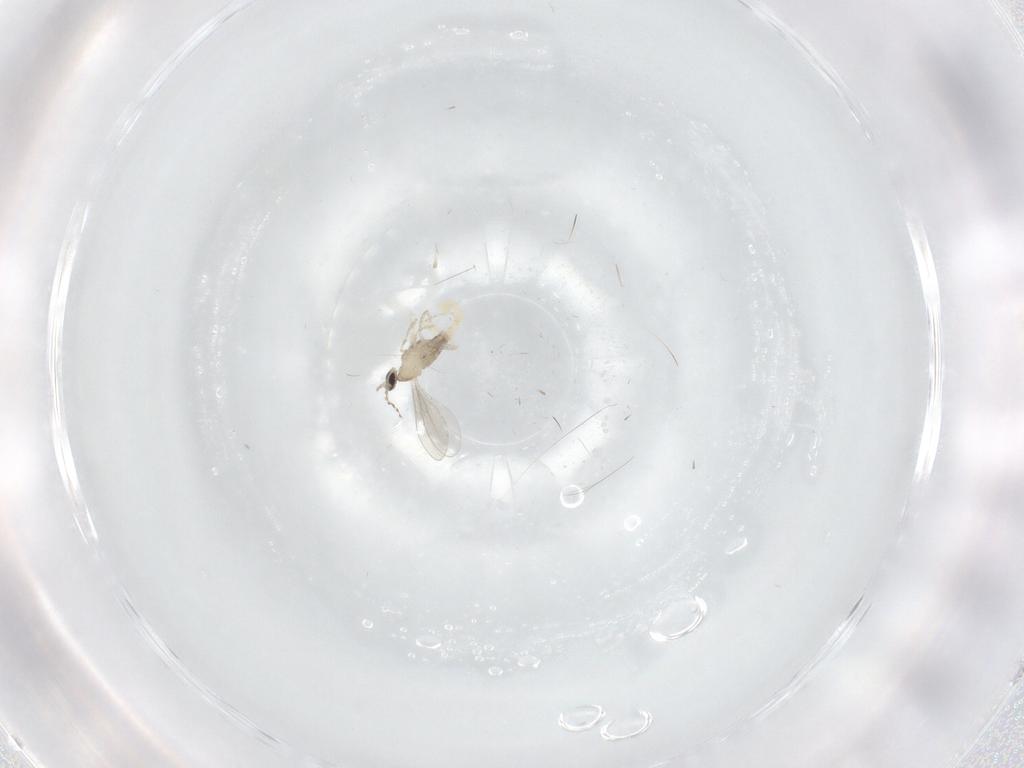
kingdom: Animalia
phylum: Arthropoda
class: Insecta
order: Diptera
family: Cecidomyiidae
